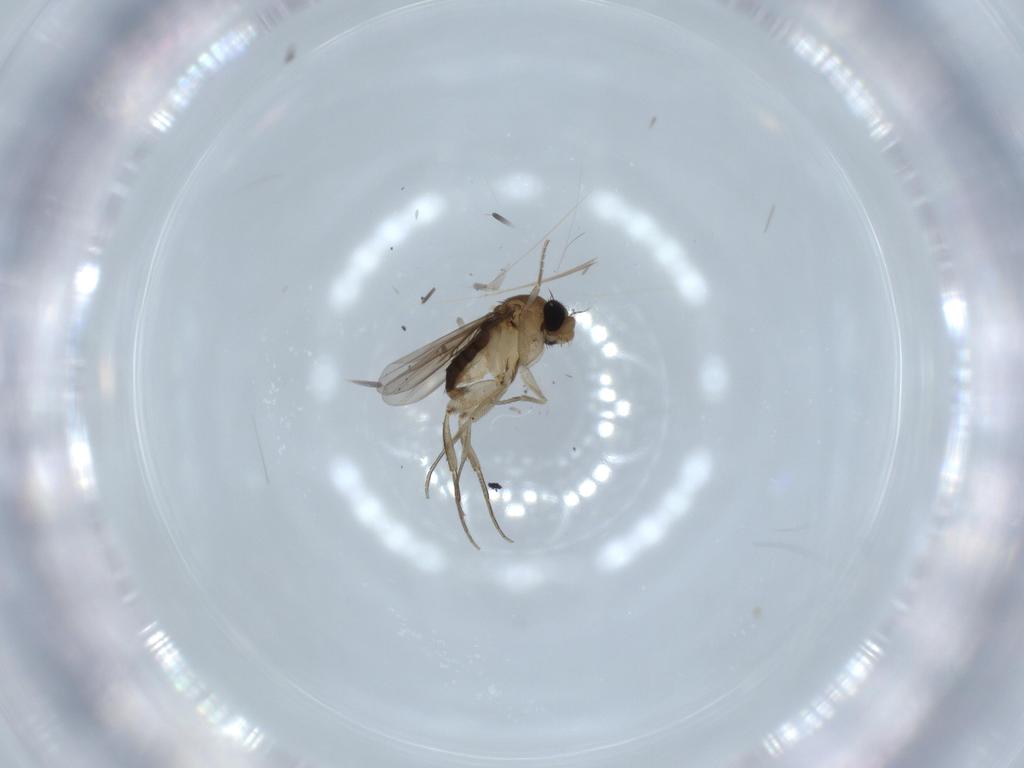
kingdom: Animalia
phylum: Arthropoda
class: Insecta
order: Diptera
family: Phoridae
